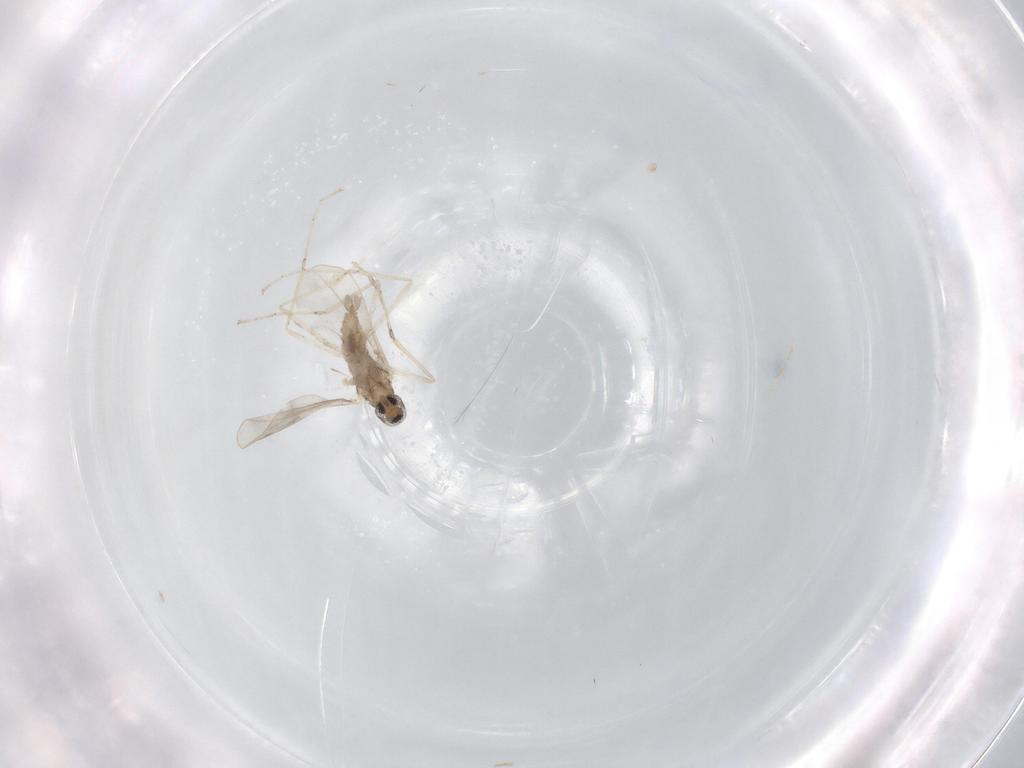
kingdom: Animalia
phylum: Arthropoda
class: Insecta
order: Diptera
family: Cecidomyiidae
